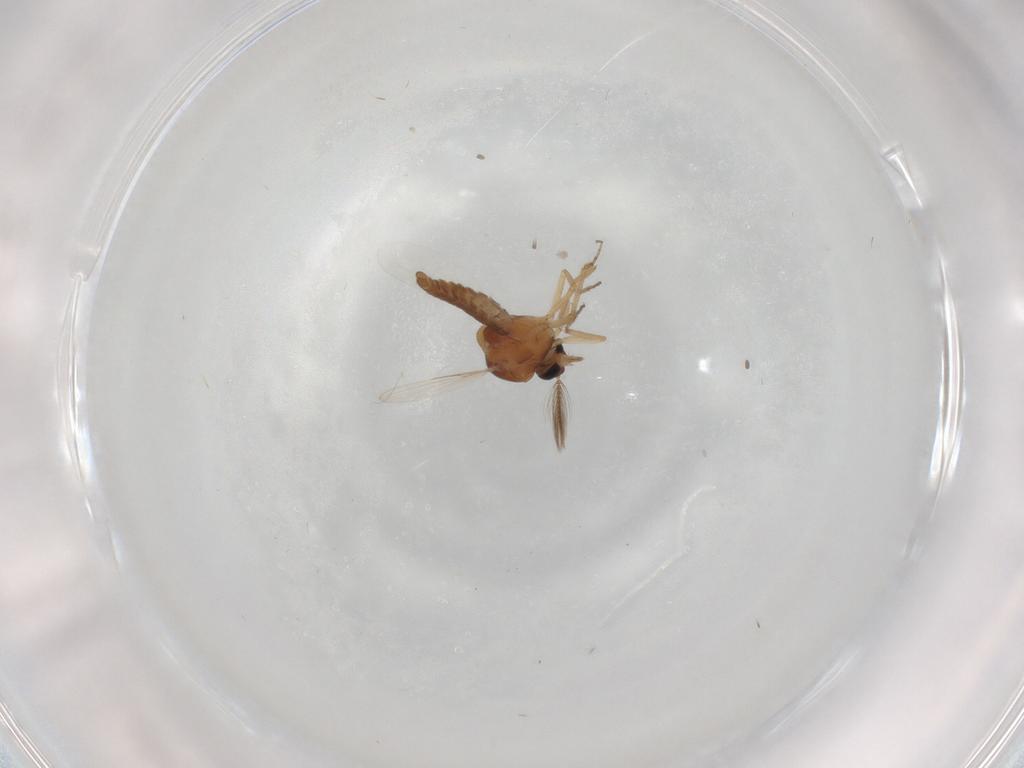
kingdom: Animalia
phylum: Arthropoda
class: Insecta
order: Diptera
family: Ceratopogonidae
